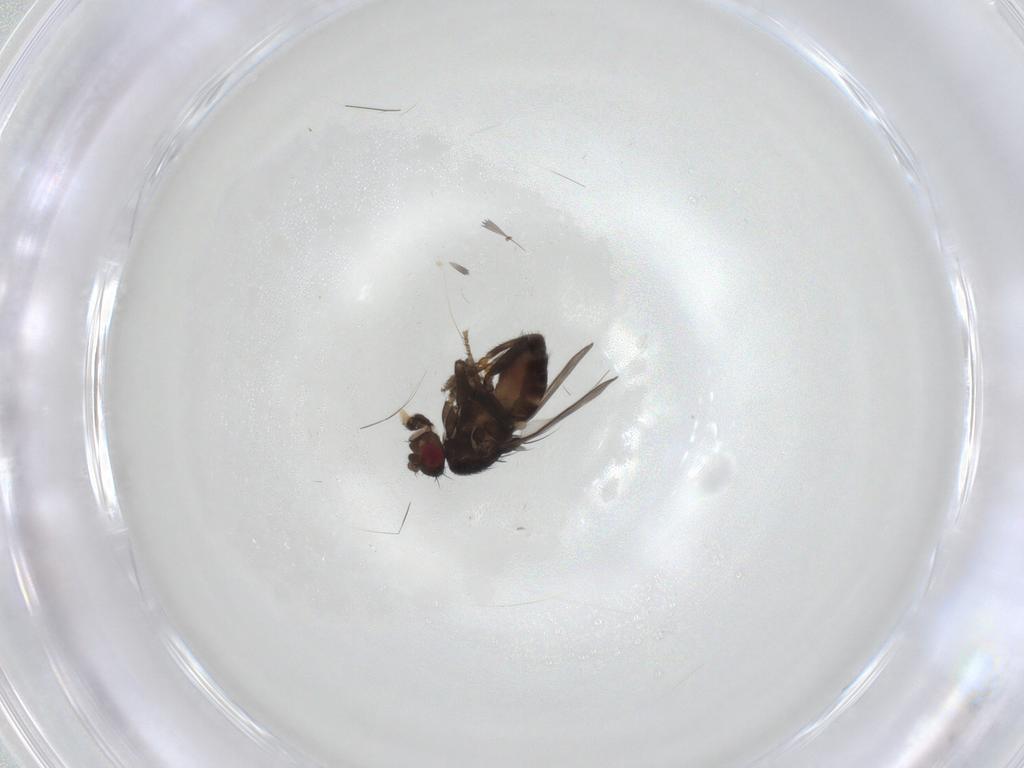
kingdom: Animalia
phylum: Arthropoda
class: Insecta
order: Diptera
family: Sphaeroceridae
